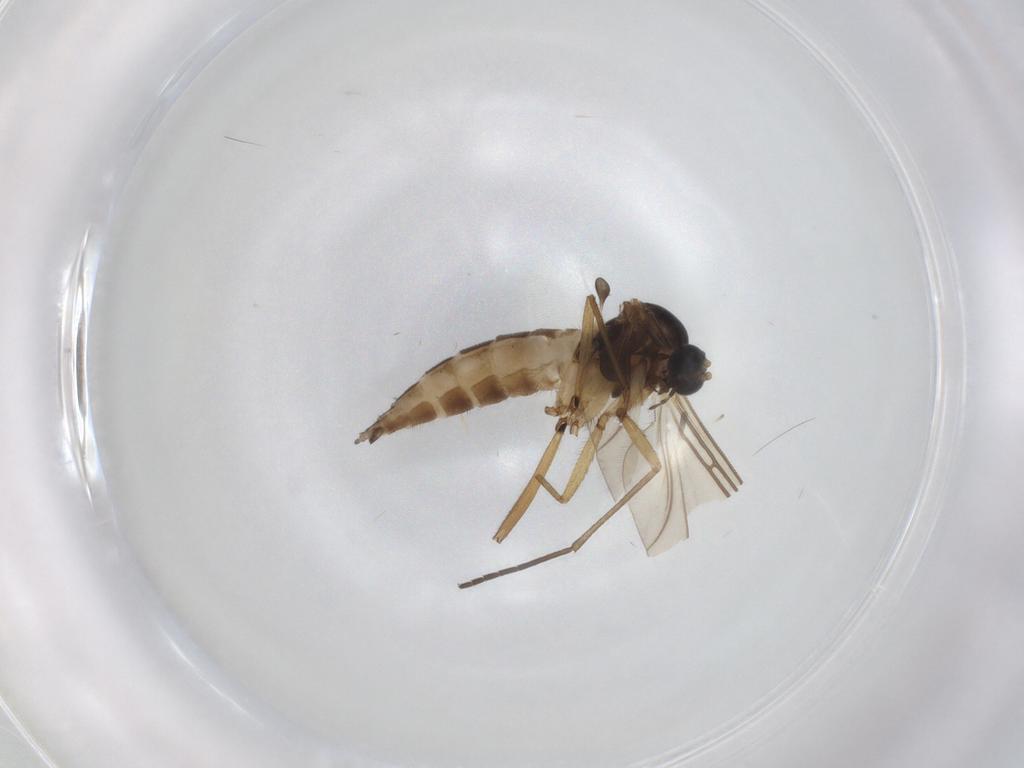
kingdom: Animalia
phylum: Arthropoda
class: Insecta
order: Diptera
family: Sciaridae
